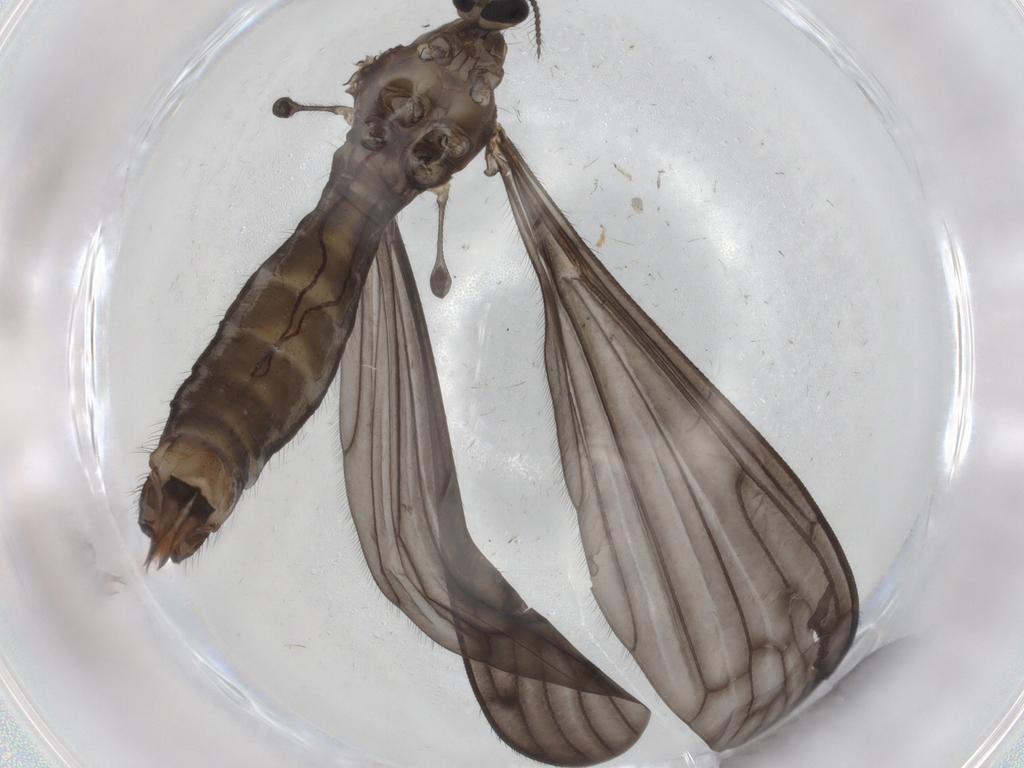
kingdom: Animalia
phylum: Arthropoda
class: Insecta
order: Diptera
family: Limoniidae
